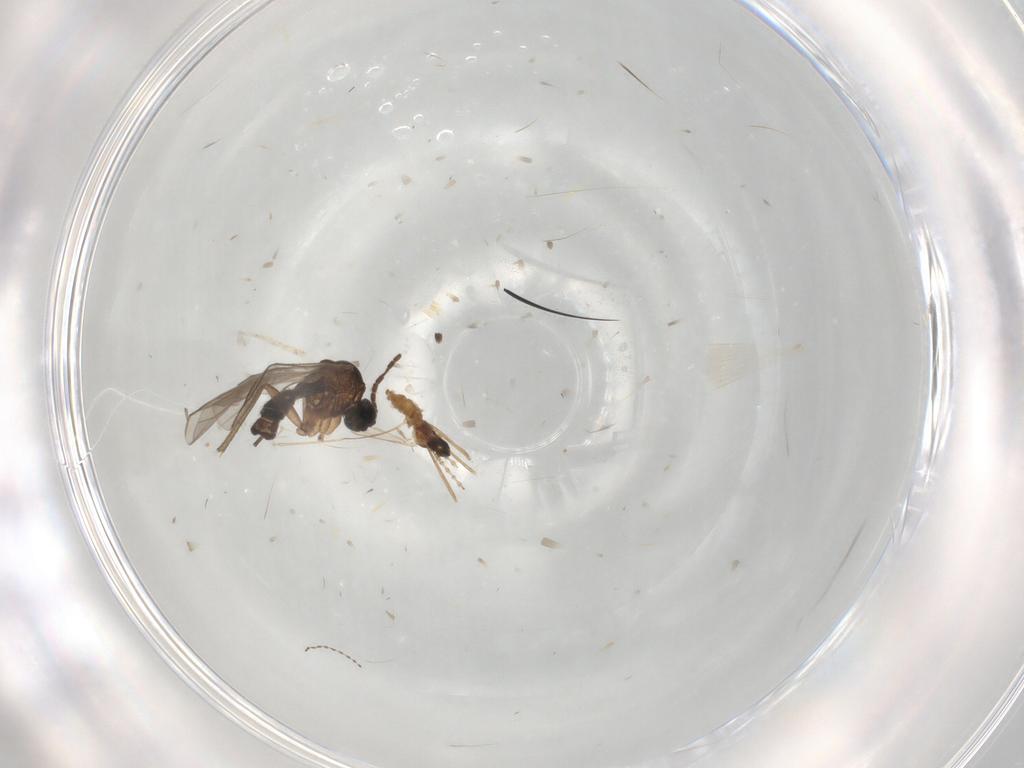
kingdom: Animalia
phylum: Arthropoda
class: Insecta
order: Diptera
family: Sciaridae
